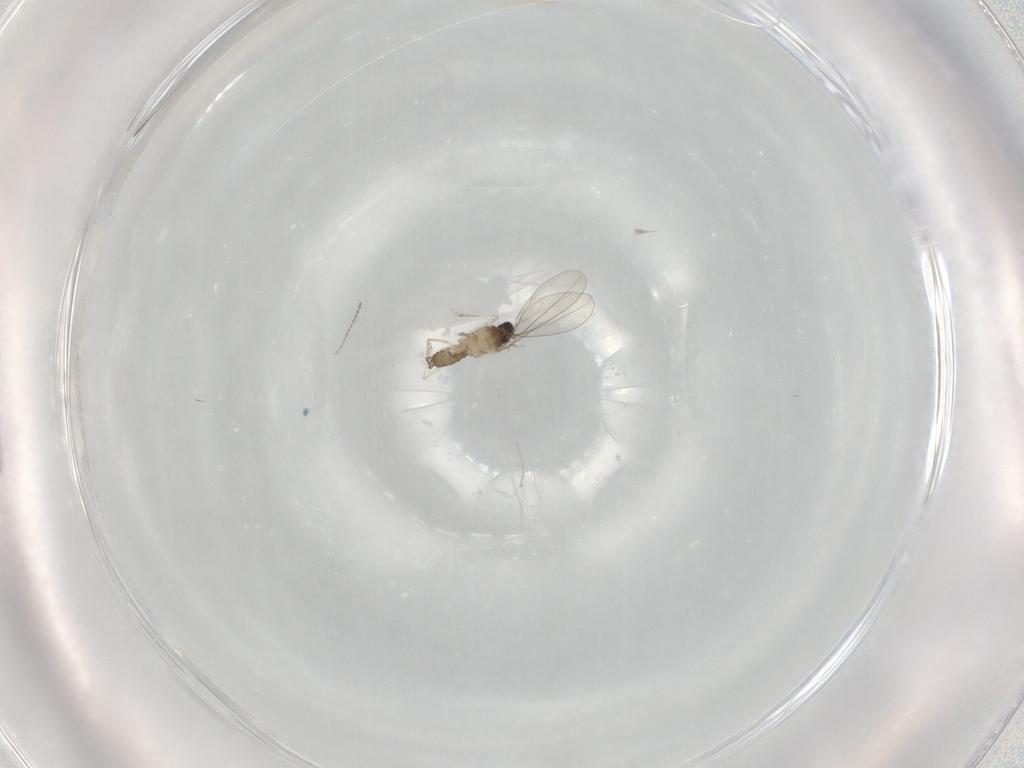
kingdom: Animalia
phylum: Arthropoda
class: Insecta
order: Diptera
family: Cecidomyiidae
